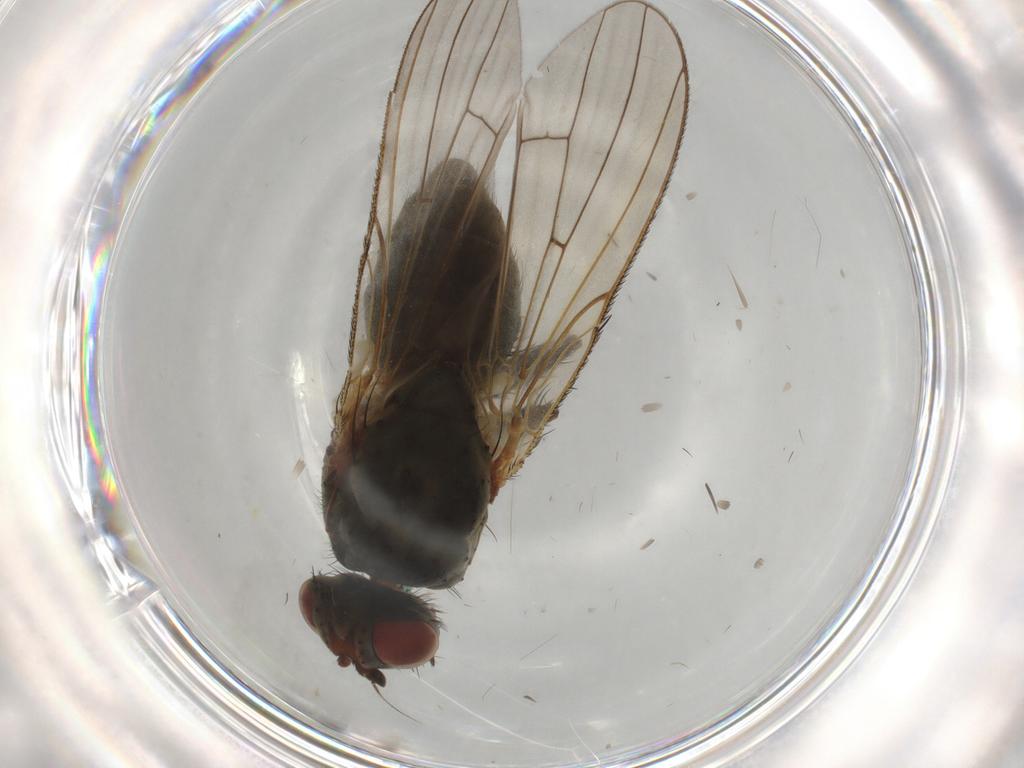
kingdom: Animalia
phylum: Arthropoda
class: Insecta
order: Diptera
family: Anthomyiidae
